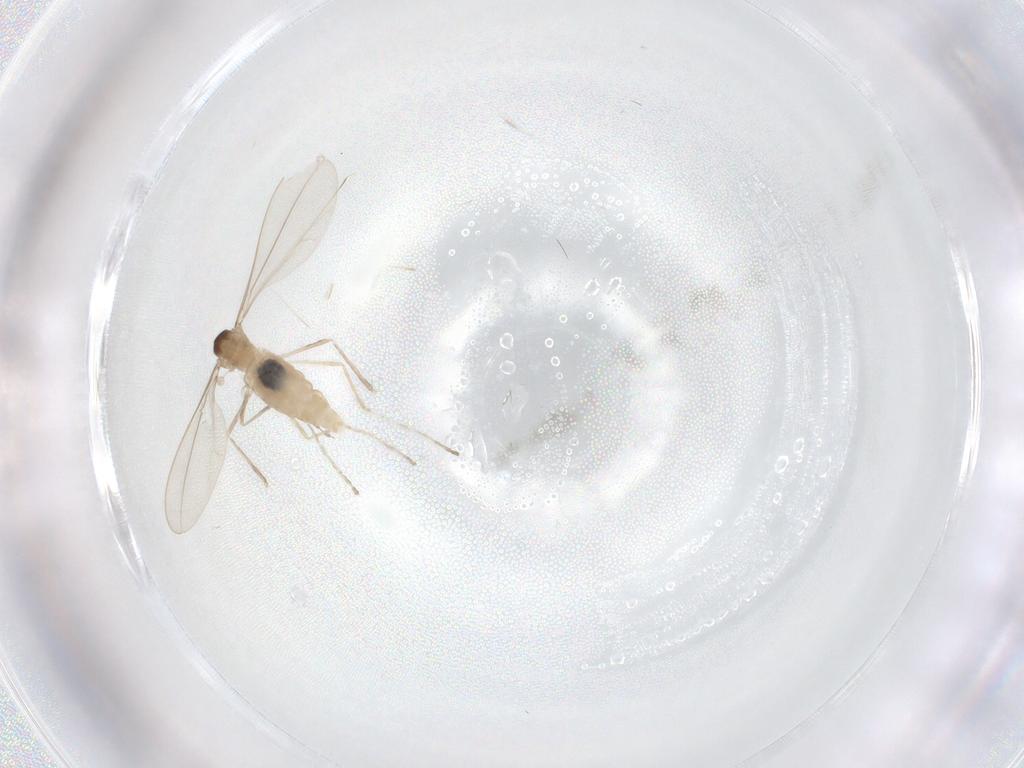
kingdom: Animalia
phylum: Arthropoda
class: Insecta
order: Diptera
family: Cecidomyiidae
